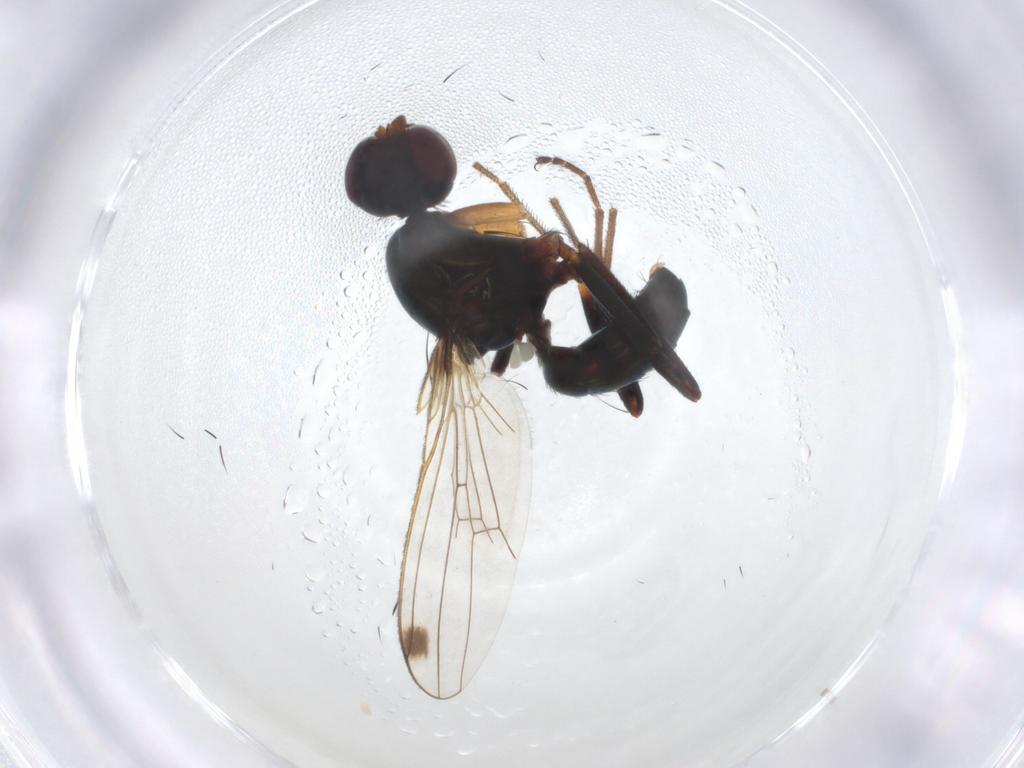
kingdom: Animalia
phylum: Arthropoda
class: Insecta
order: Diptera
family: Sepsidae
